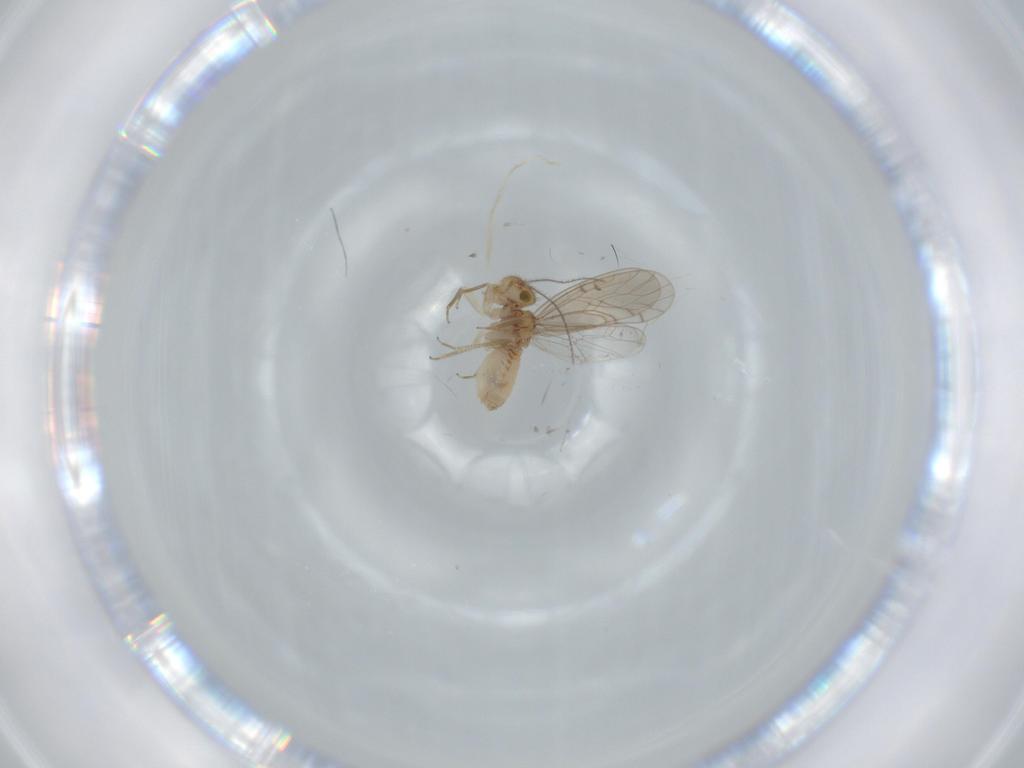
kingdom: Animalia
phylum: Arthropoda
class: Insecta
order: Psocodea
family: Ectopsocidae
